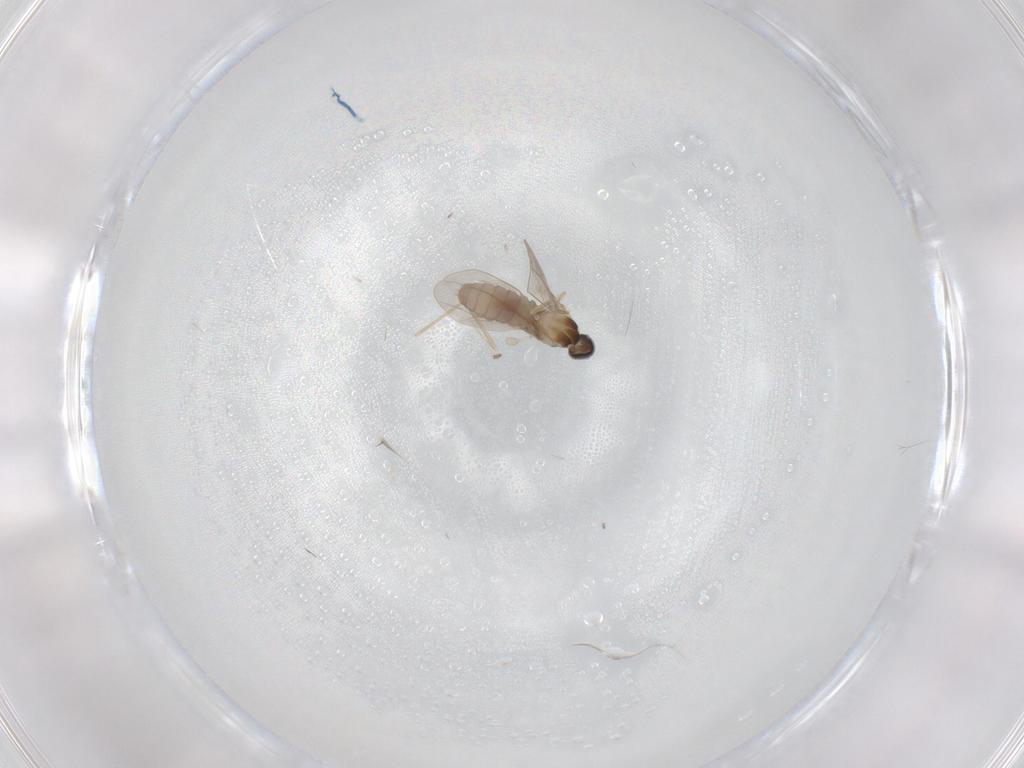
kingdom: Animalia
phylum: Arthropoda
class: Insecta
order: Diptera
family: Cecidomyiidae
